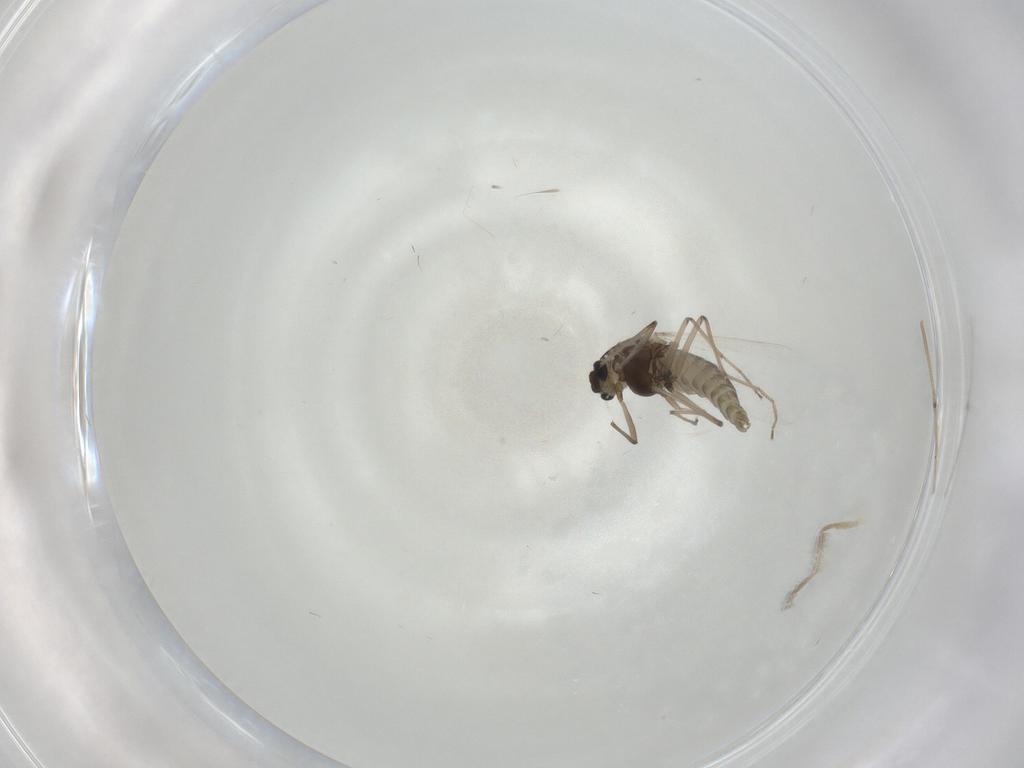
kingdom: Animalia
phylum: Arthropoda
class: Insecta
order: Diptera
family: Chironomidae
